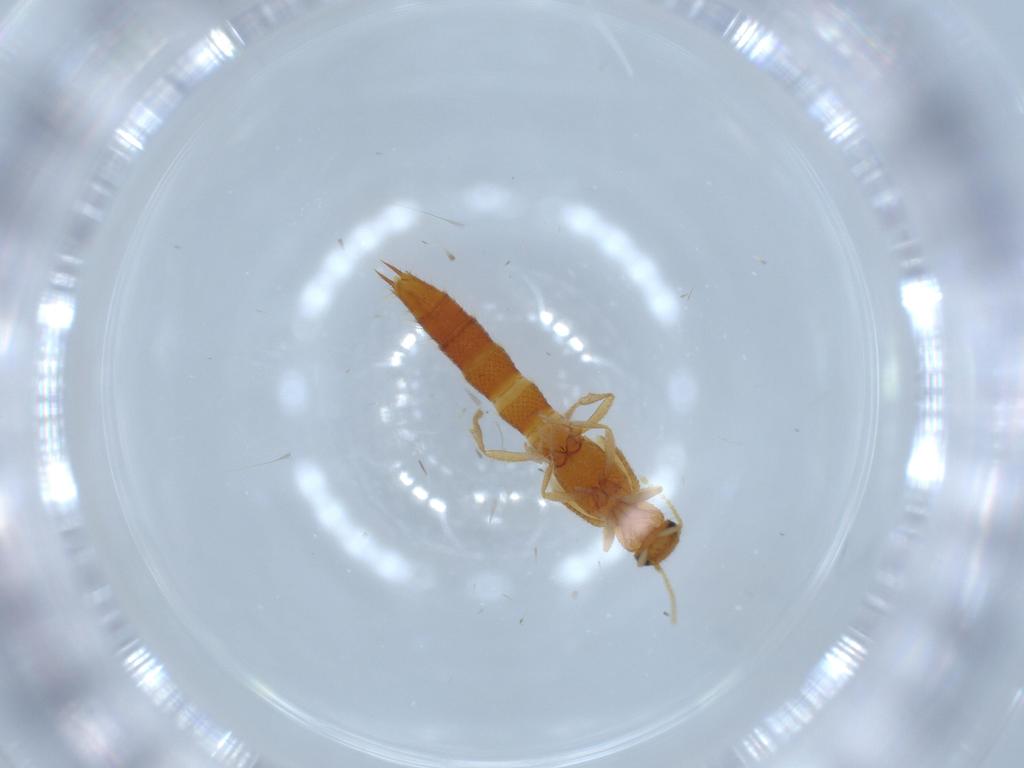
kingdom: Animalia
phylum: Arthropoda
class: Insecta
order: Coleoptera
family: Staphylinidae
